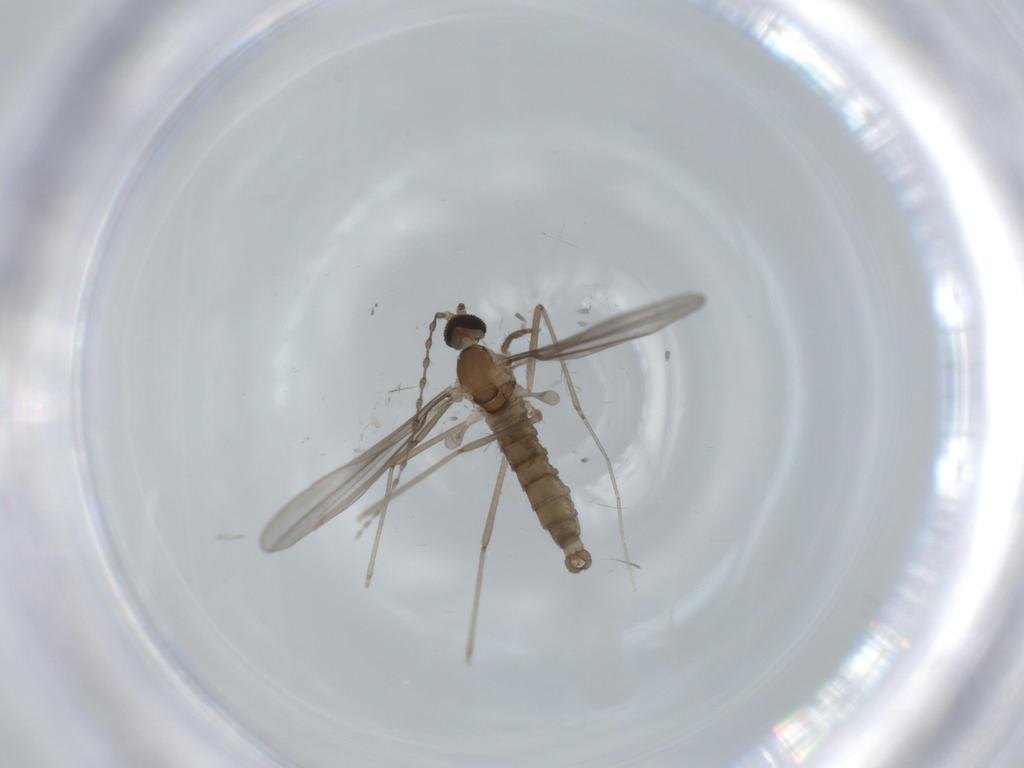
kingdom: Animalia
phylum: Arthropoda
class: Insecta
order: Diptera
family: Cecidomyiidae
